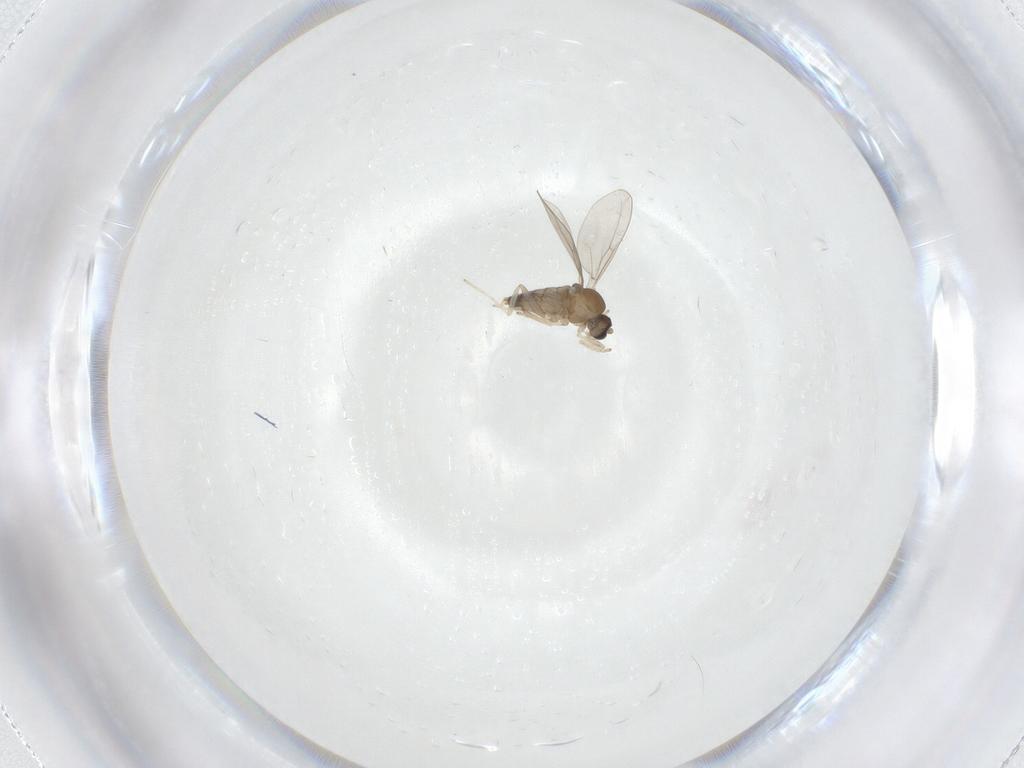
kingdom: Animalia
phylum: Arthropoda
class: Insecta
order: Diptera
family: Cecidomyiidae
